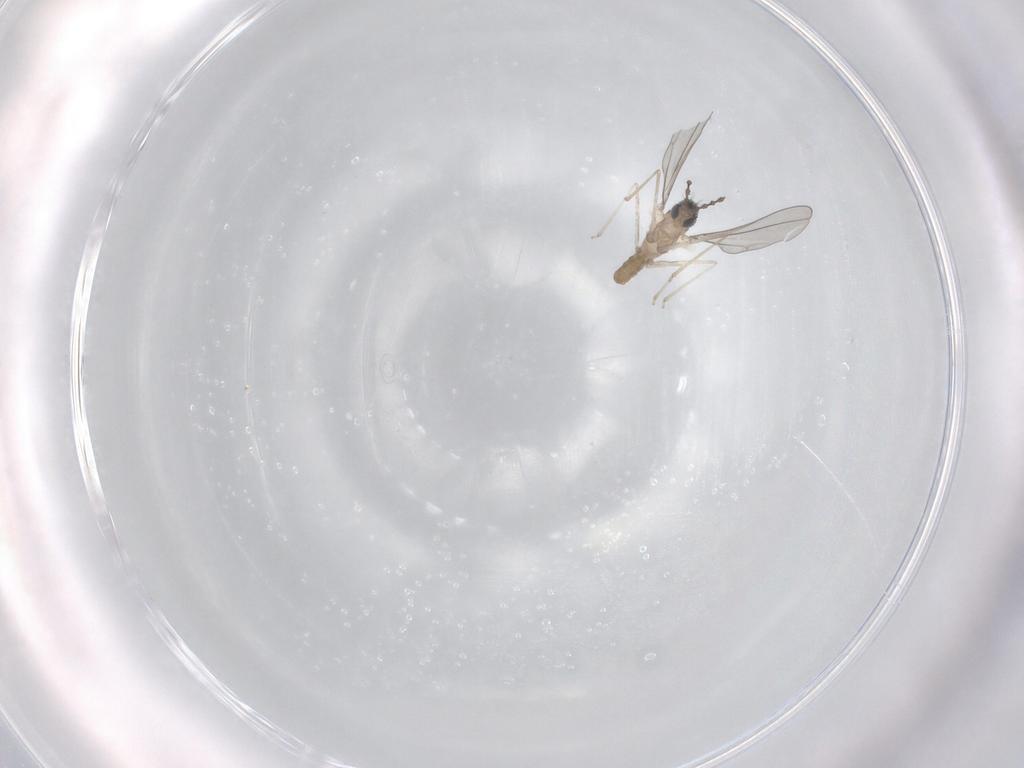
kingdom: Animalia
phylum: Arthropoda
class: Insecta
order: Diptera
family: Cecidomyiidae
